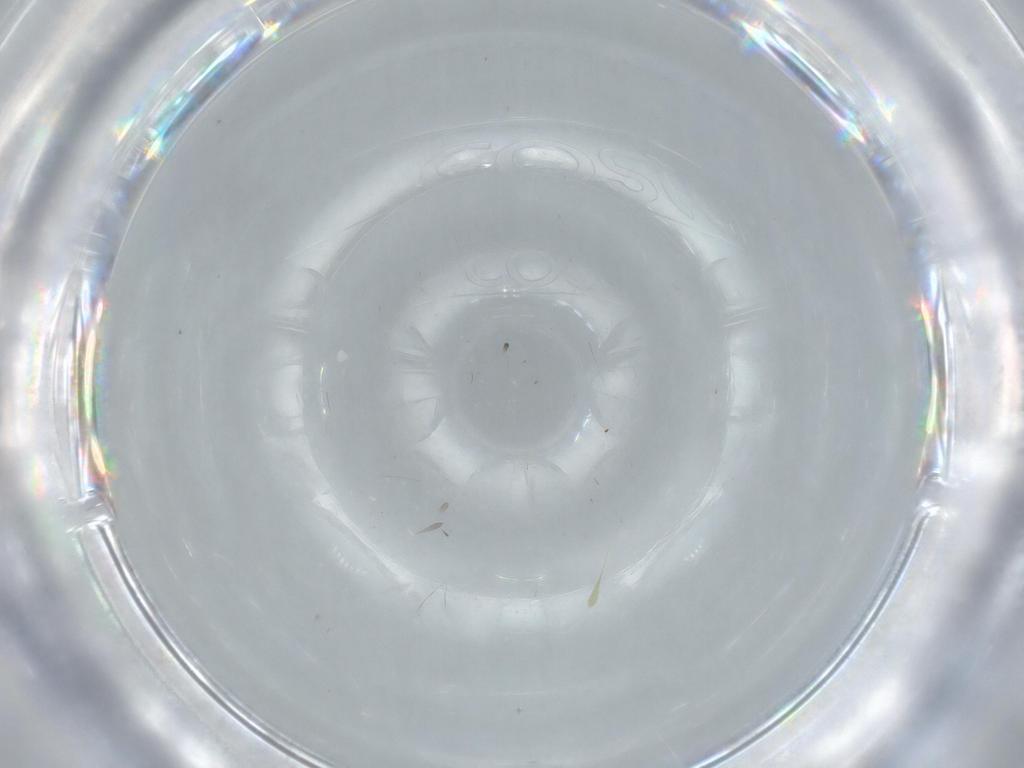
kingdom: Animalia
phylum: Arthropoda
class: Insecta
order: Hymenoptera
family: Trichogrammatidae
